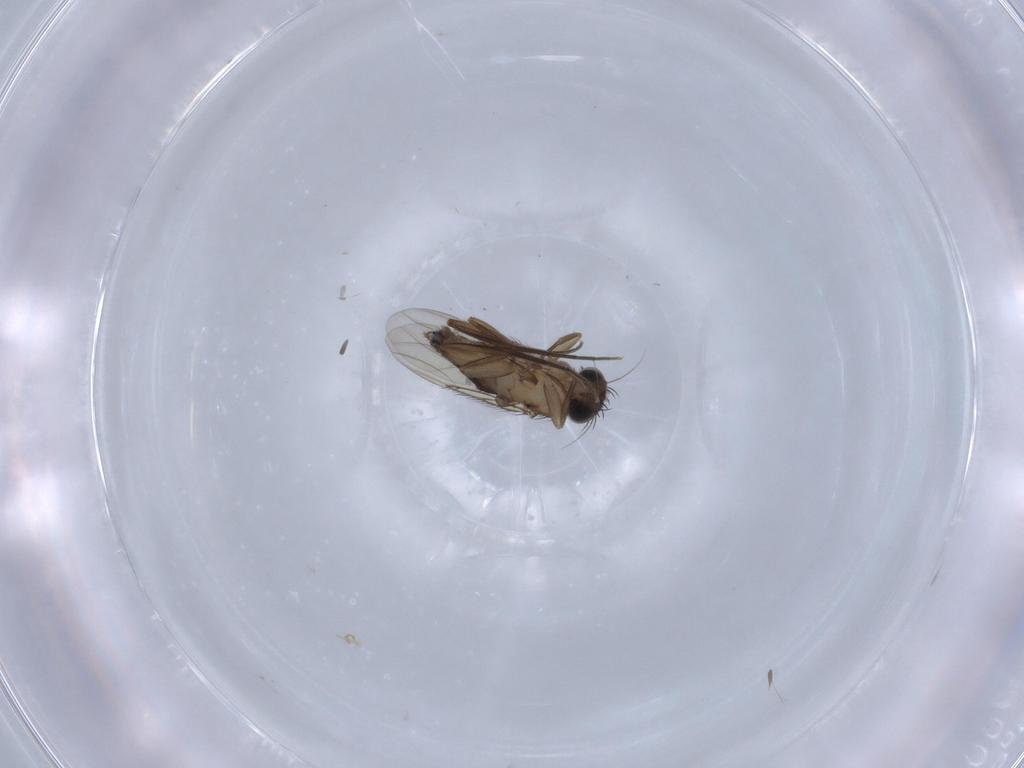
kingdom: Animalia
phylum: Arthropoda
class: Insecta
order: Diptera
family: Phoridae
